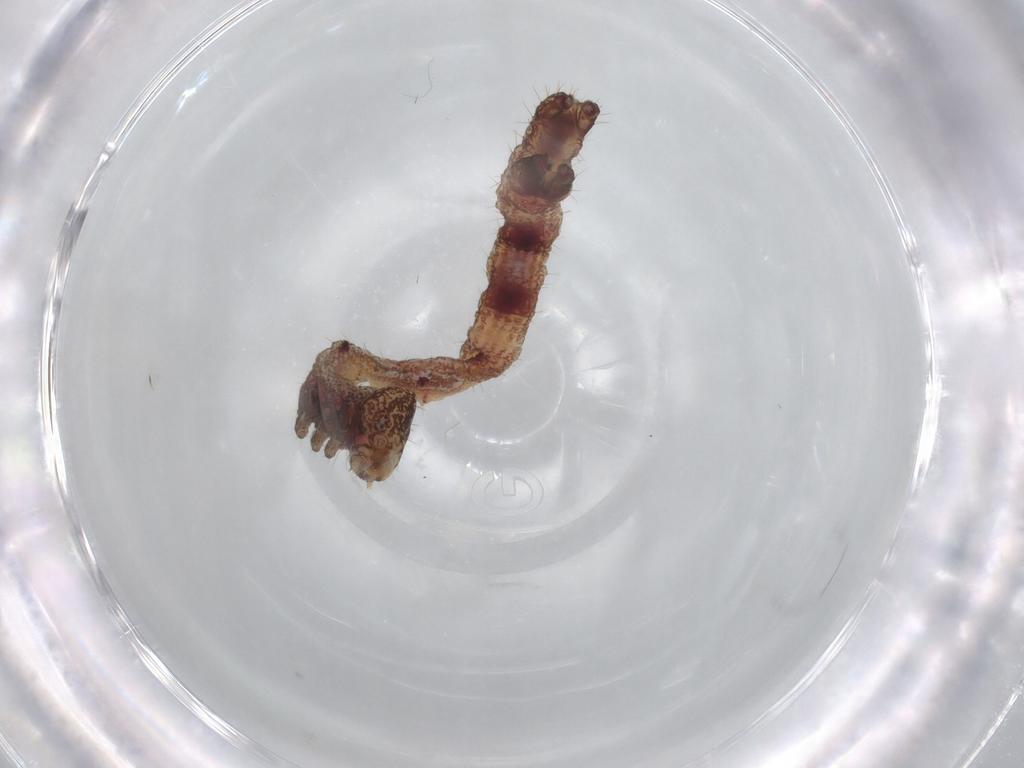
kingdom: Animalia
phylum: Arthropoda
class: Insecta
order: Lepidoptera
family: Geometridae
